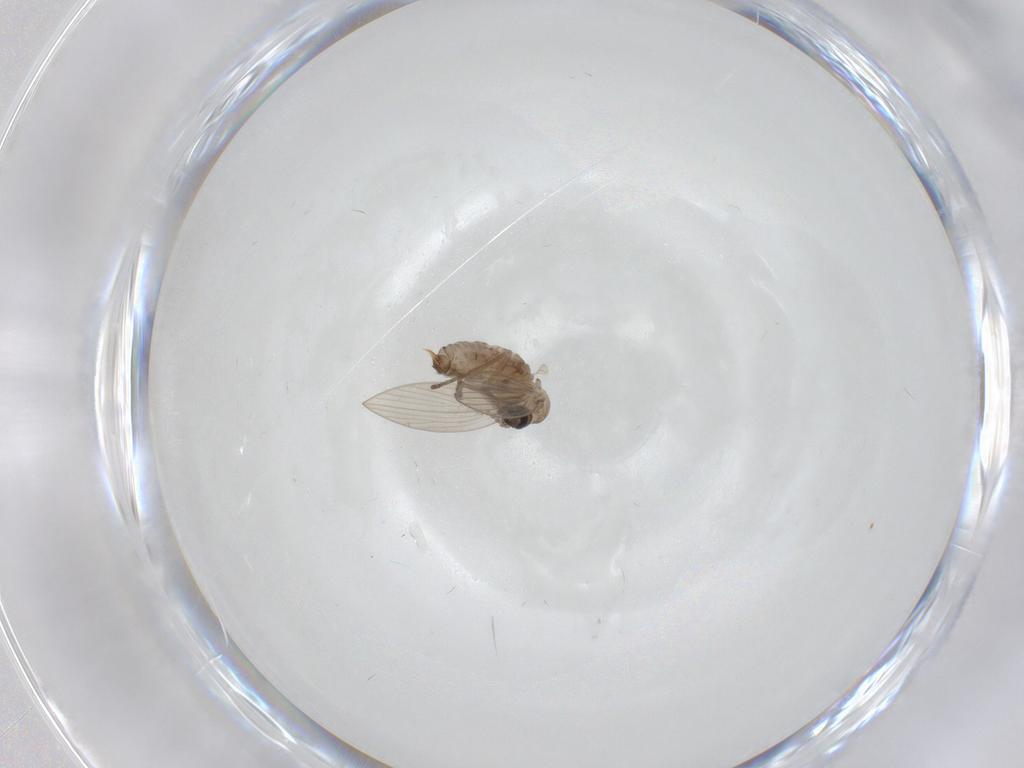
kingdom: Animalia
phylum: Arthropoda
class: Insecta
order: Diptera
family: Psychodidae
